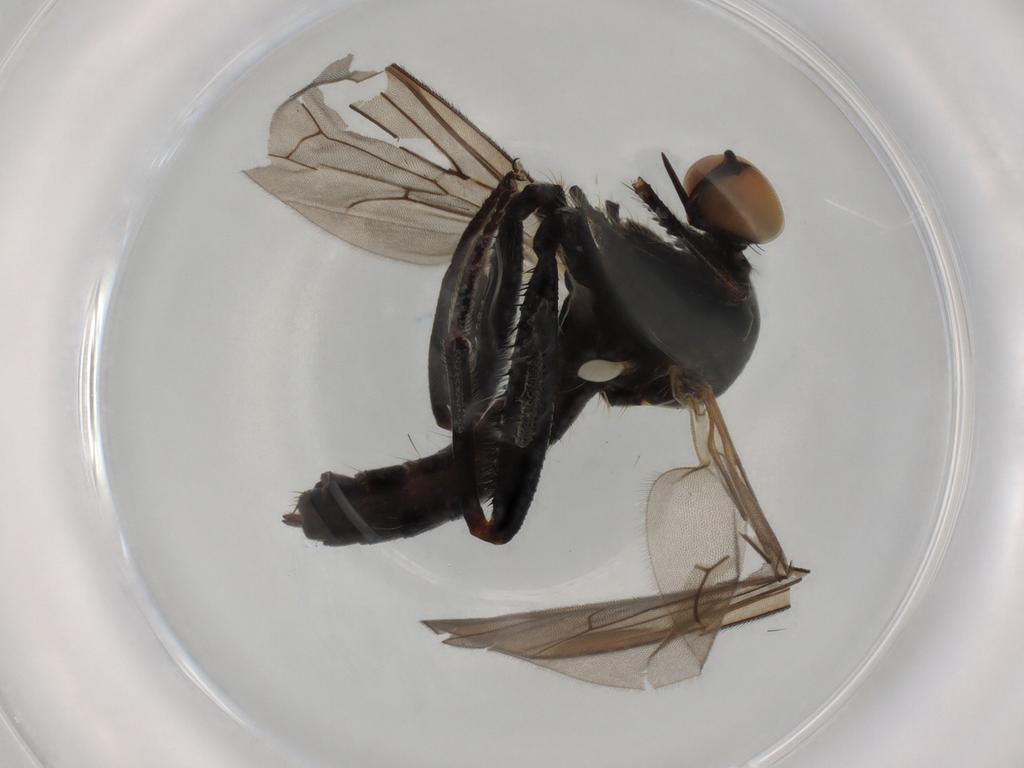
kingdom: Animalia
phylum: Arthropoda
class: Insecta
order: Diptera
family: Hybotidae
